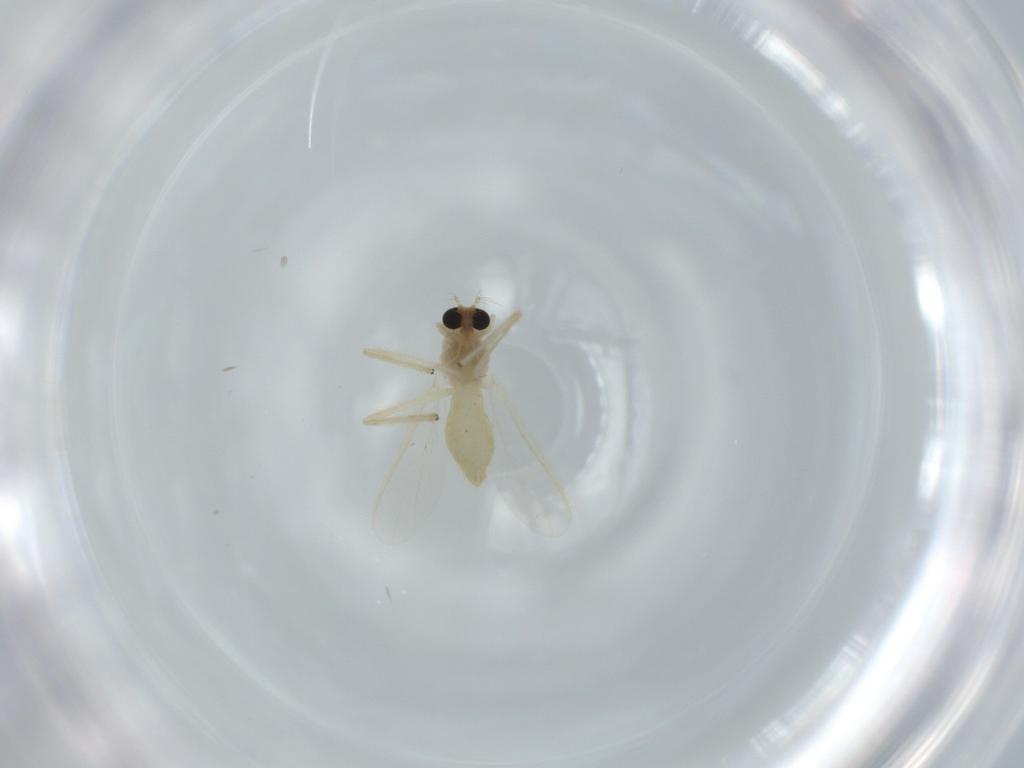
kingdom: Animalia
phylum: Arthropoda
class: Insecta
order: Diptera
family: Chironomidae
